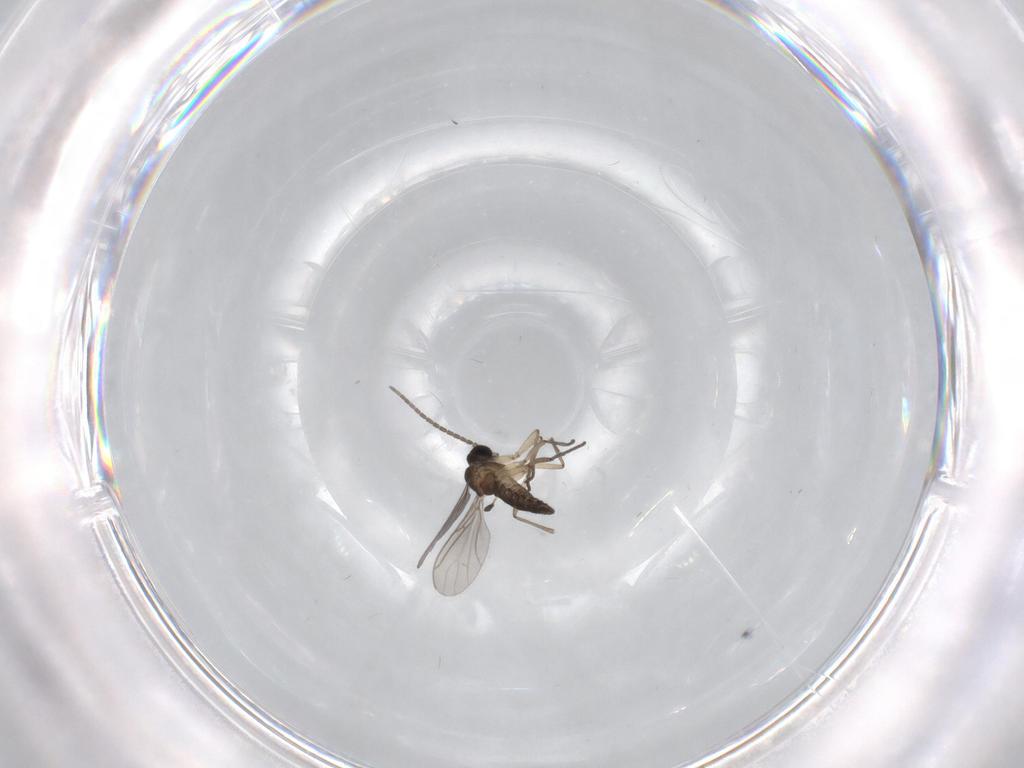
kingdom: Animalia
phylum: Arthropoda
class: Insecta
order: Diptera
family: Sciaridae
